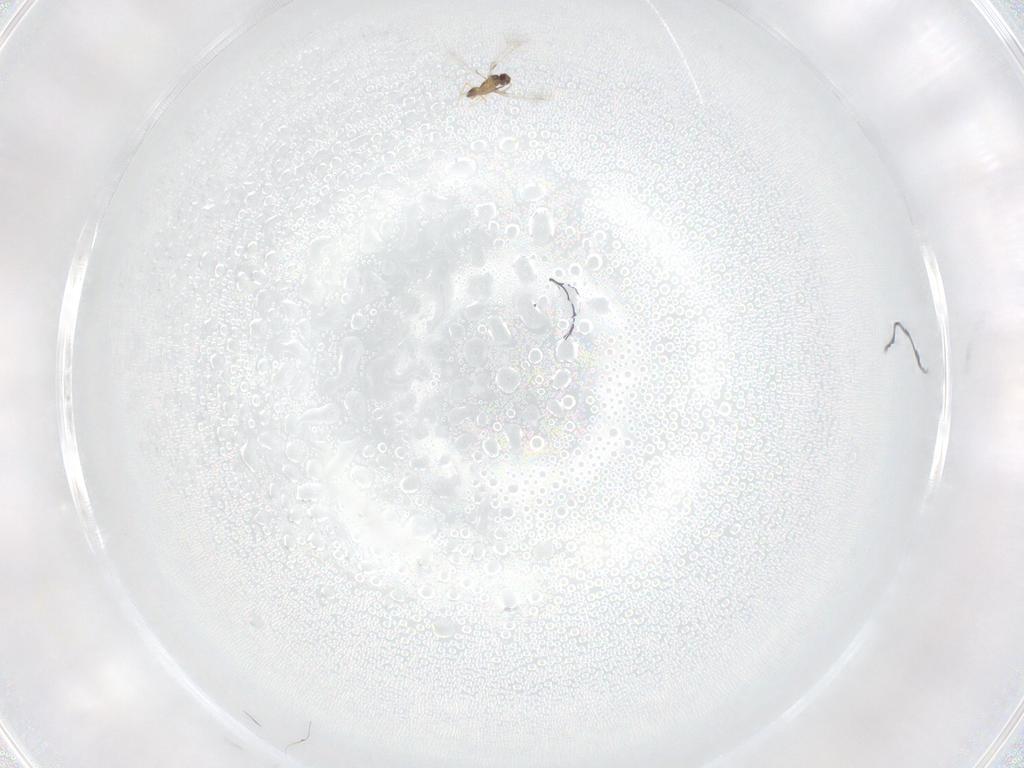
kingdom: Animalia
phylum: Arthropoda
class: Insecta
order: Hymenoptera
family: Mymaridae
